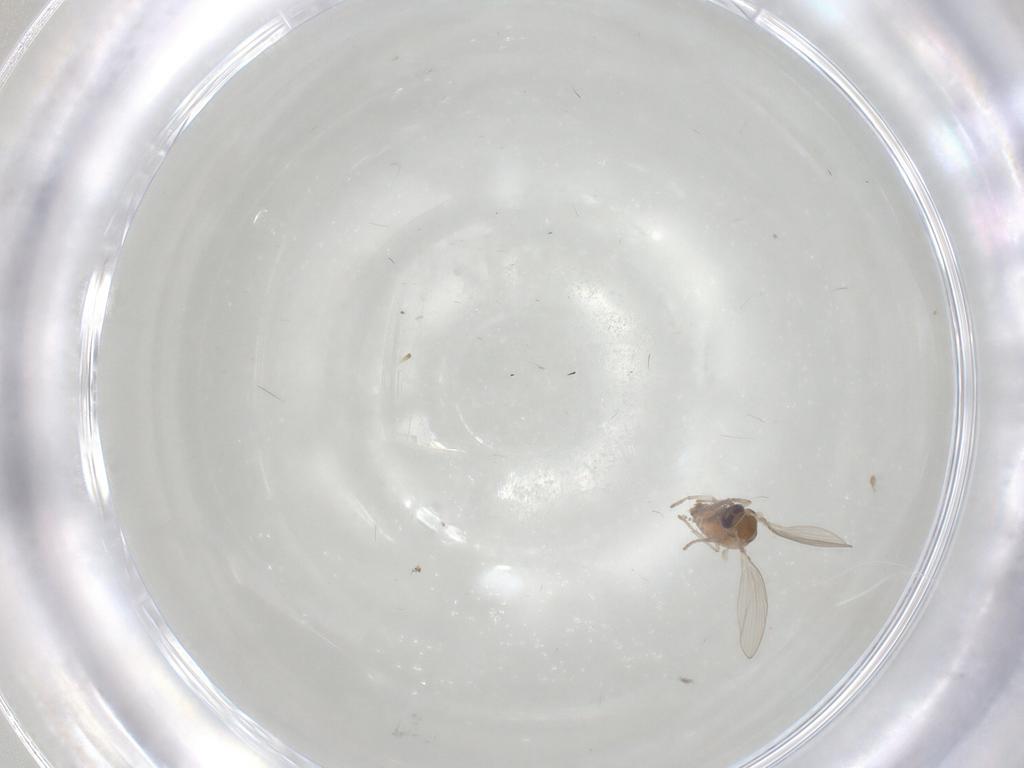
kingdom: Animalia
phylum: Arthropoda
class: Insecta
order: Diptera
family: Phoridae
